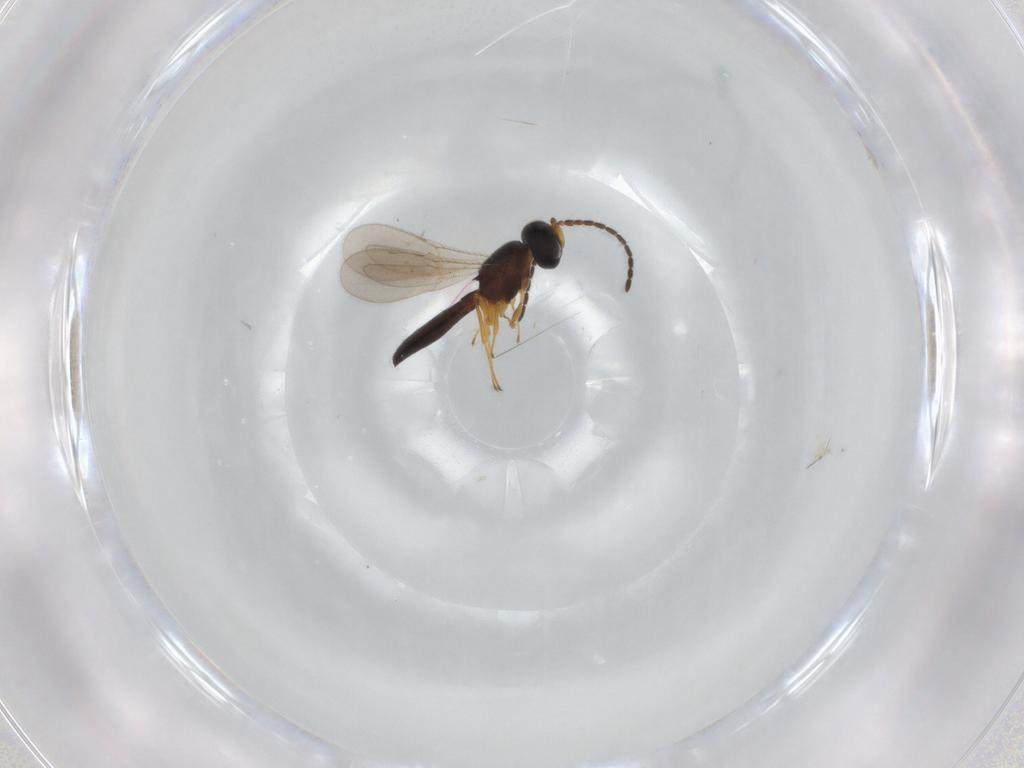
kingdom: Animalia
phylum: Arthropoda
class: Insecta
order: Hymenoptera
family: Scelionidae
